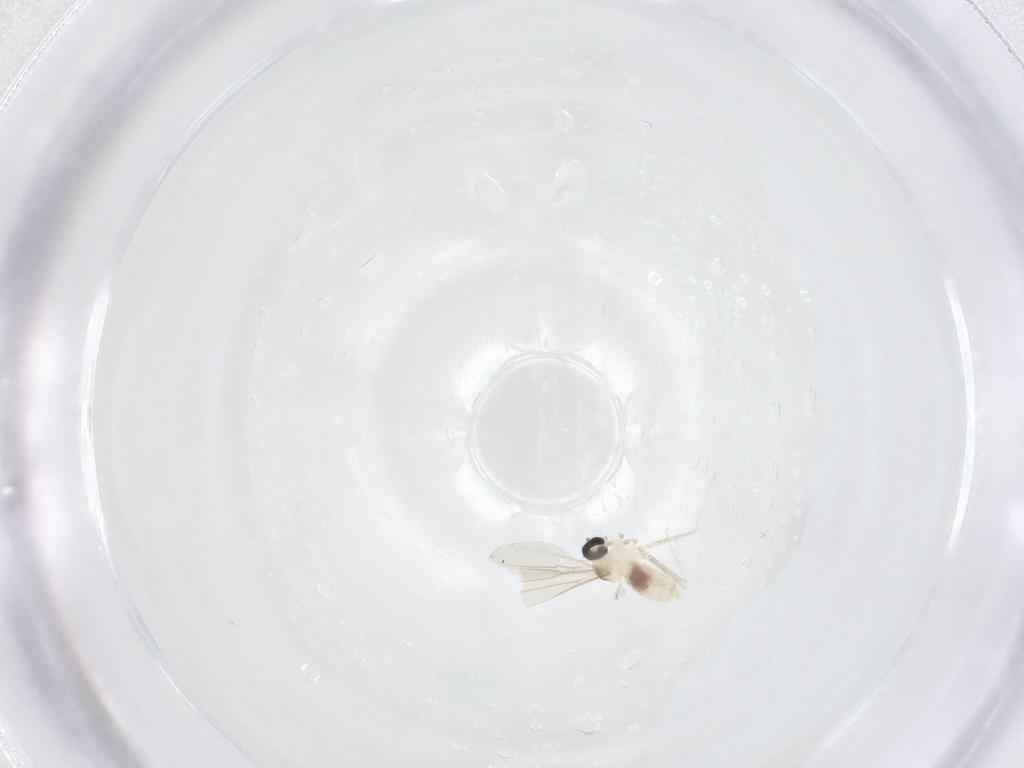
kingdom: Animalia
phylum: Arthropoda
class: Insecta
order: Diptera
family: Cecidomyiidae
